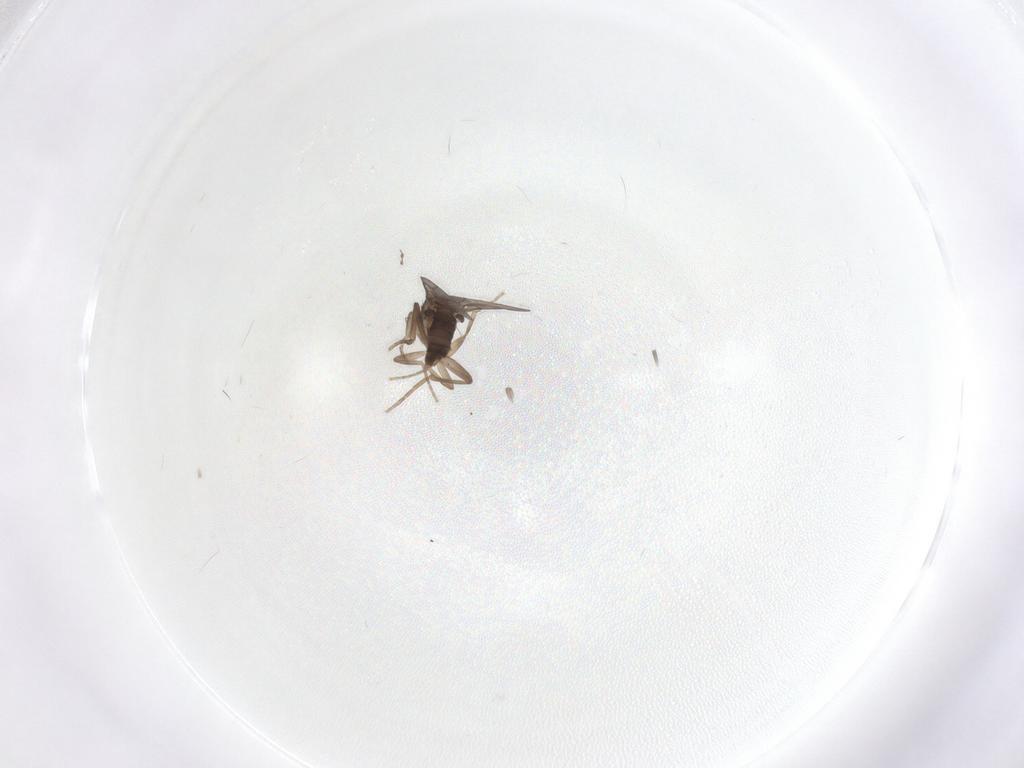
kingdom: Animalia
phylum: Arthropoda
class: Insecta
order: Diptera
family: Phoridae
